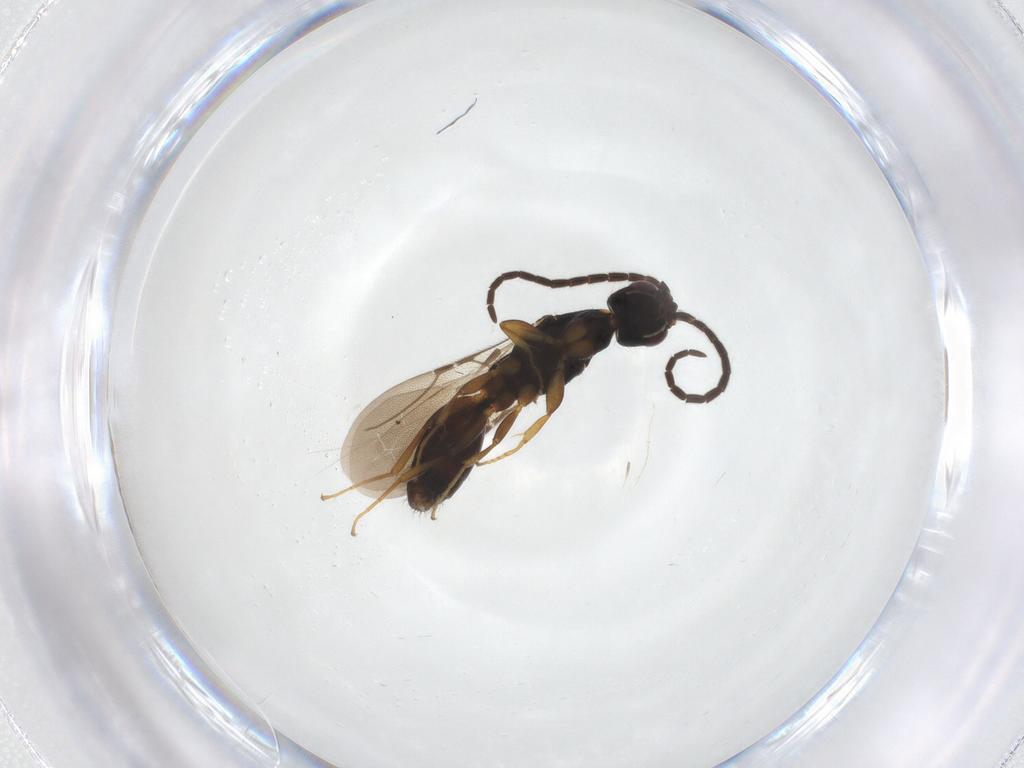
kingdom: Animalia
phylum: Arthropoda
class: Insecta
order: Hymenoptera
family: Bethylidae
